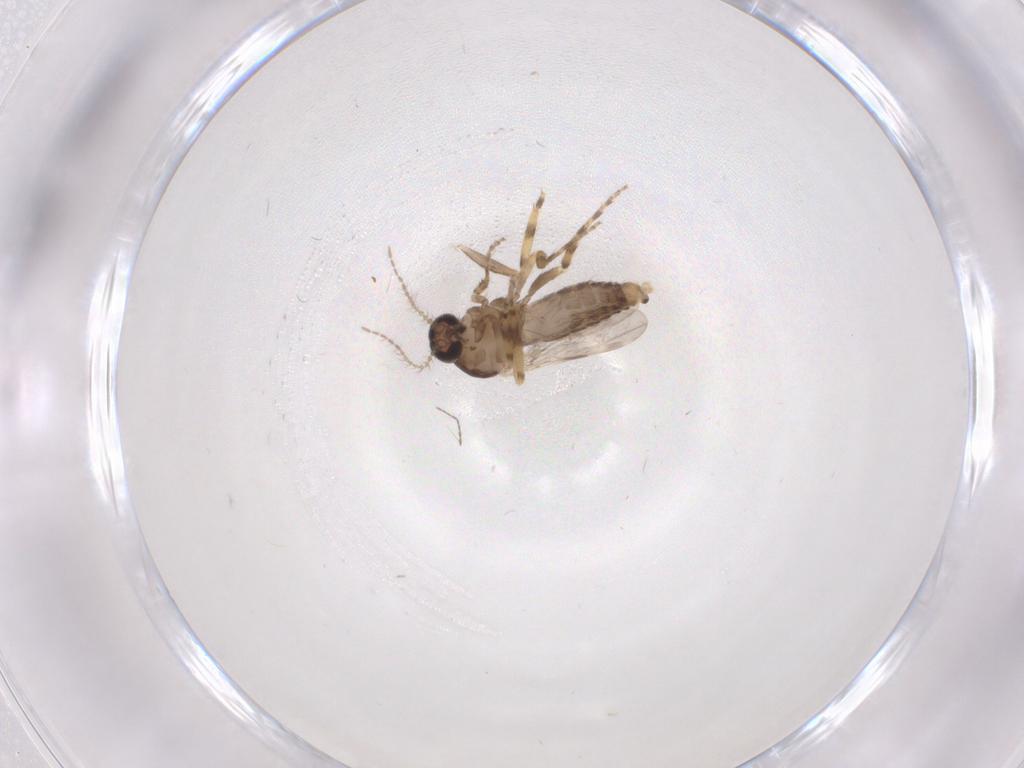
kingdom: Animalia
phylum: Arthropoda
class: Insecta
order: Diptera
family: Ceratopogonidae
